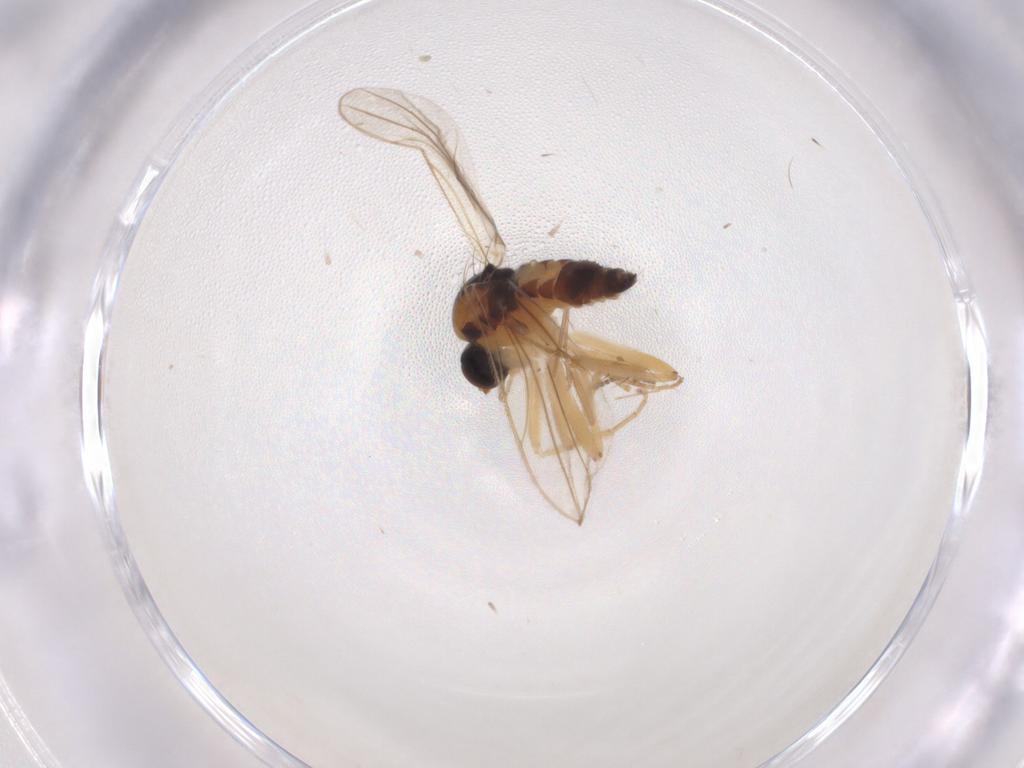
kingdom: Animalia
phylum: Arthropoda
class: Insecta
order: Diptera
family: Hybotidae
